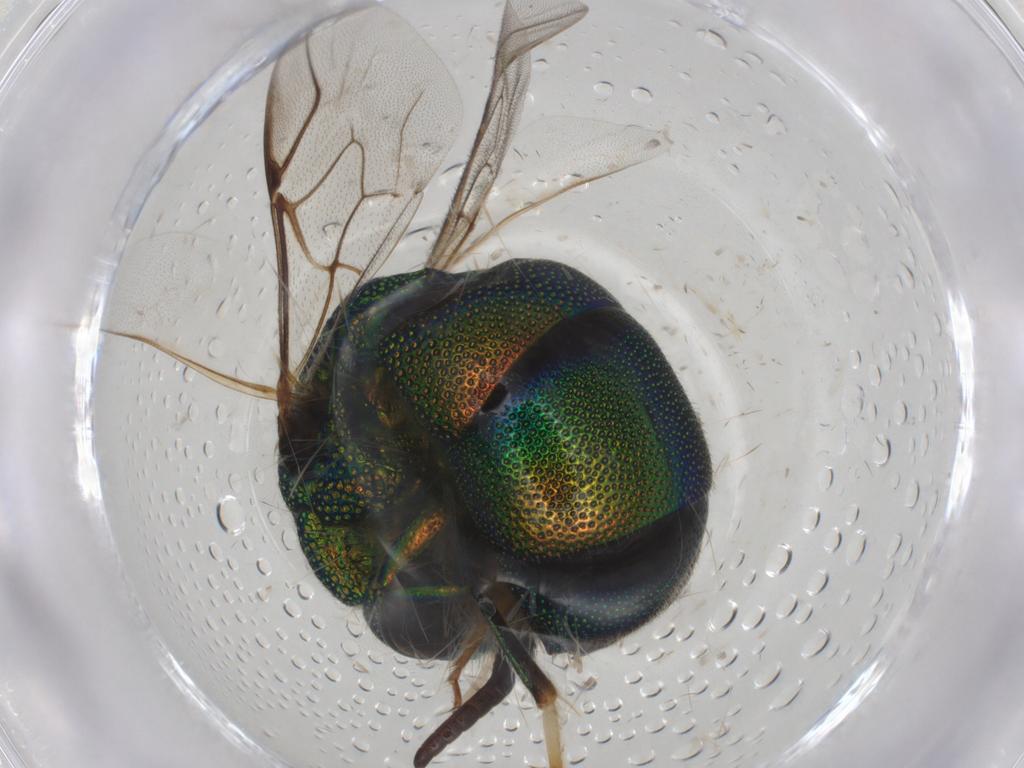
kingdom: Animalia
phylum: Arthropoda
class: Insecta
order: Hymenoptera
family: Chrysididae
